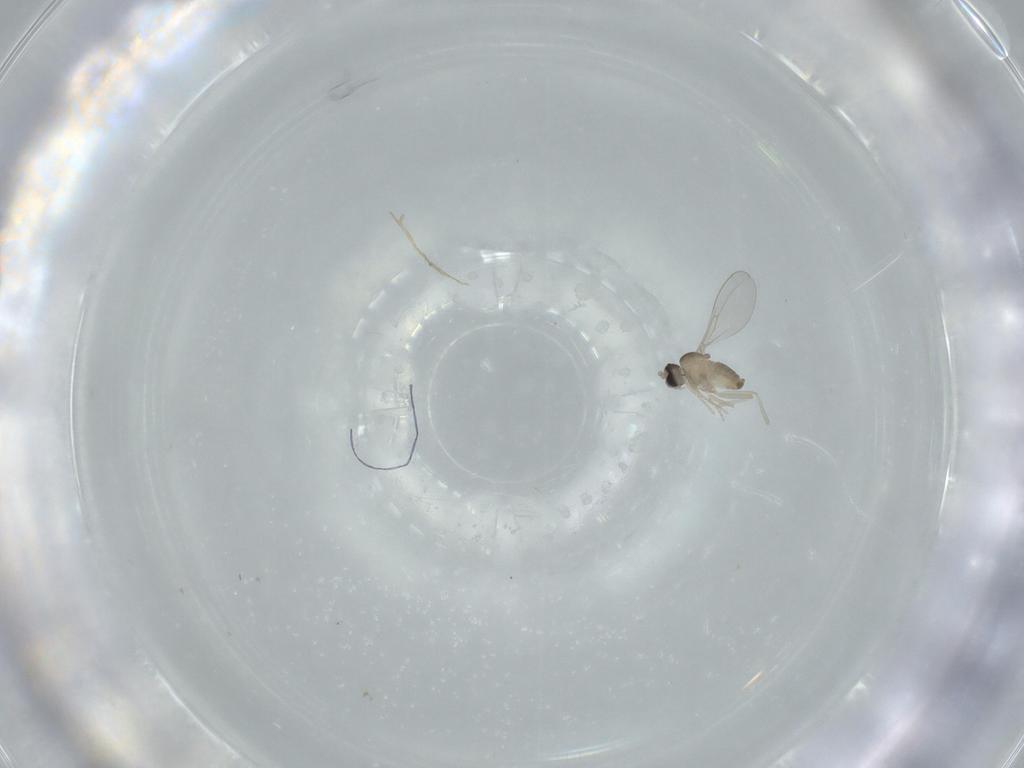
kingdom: Animalia
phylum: Arthropoda
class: Insecta
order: Diptera
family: Cecidomyiidae
